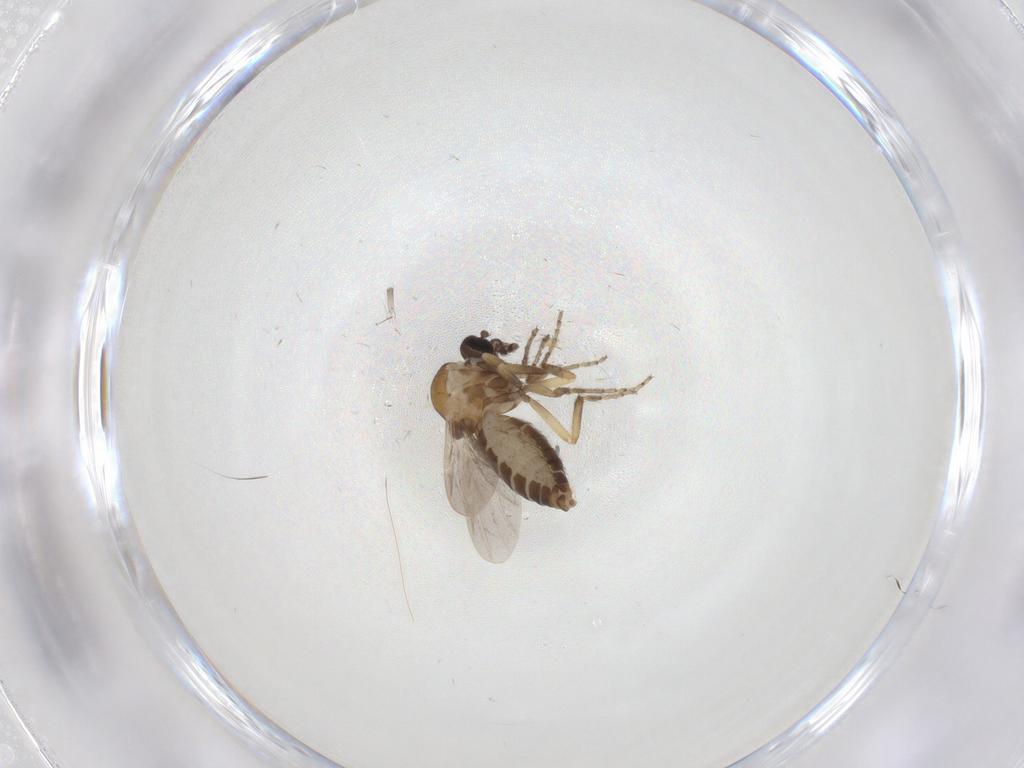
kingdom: Animalia
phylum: Arthropoda
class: Insecta
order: Diptera
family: Ceratopogonidae
